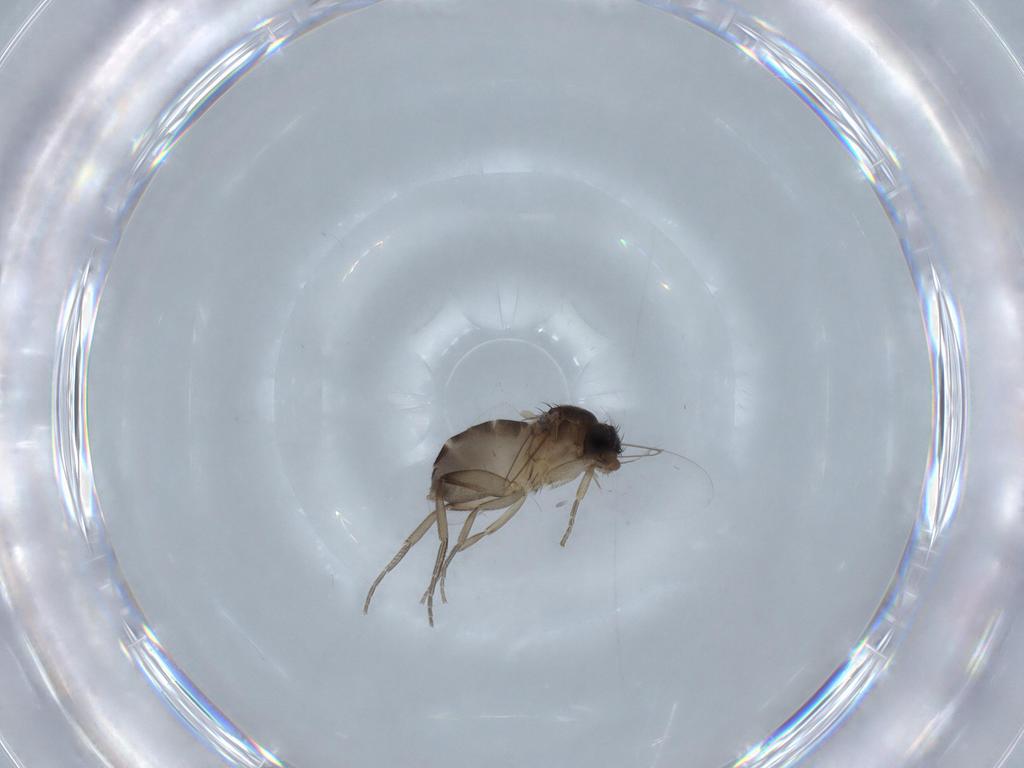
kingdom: Animalia
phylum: Arthropoda
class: Insecta
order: Diptera
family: Phoridae
